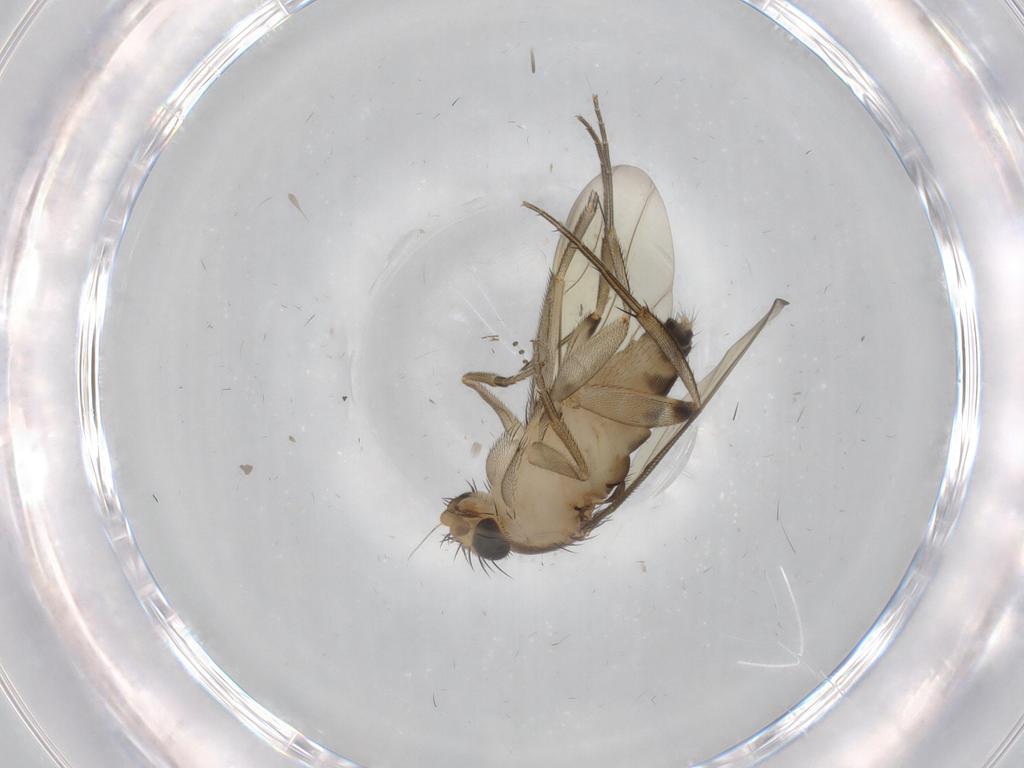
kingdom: Animalia
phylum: Arthropoda
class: Insecta
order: Diptera
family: Phoridae
